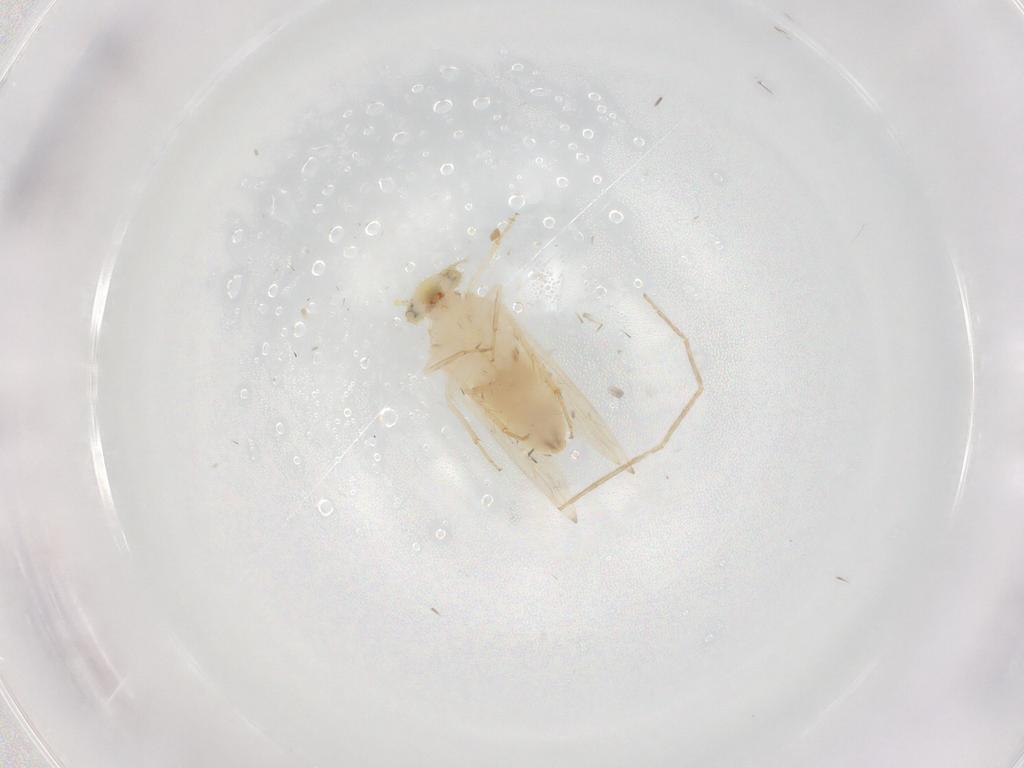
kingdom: Animalia
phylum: Arthropoda
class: Insecta
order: Psocodea
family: Lepidopsocidae
